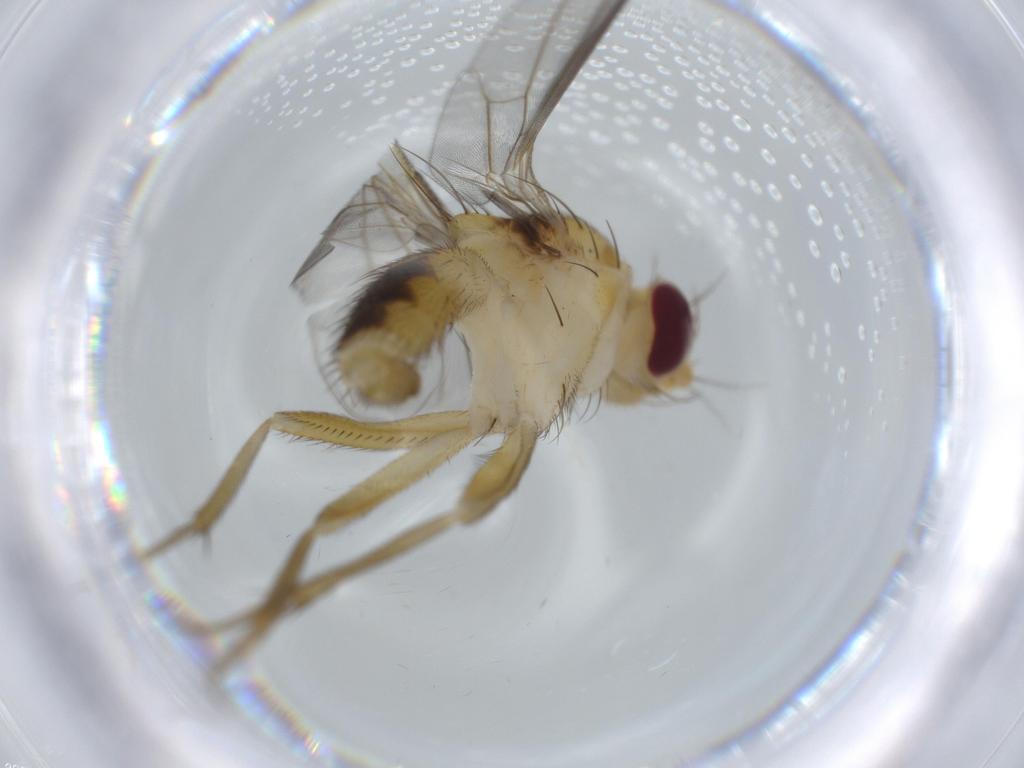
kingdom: Animalia
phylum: Arthropoda
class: Insecta
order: Diptera
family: Clusiidae
